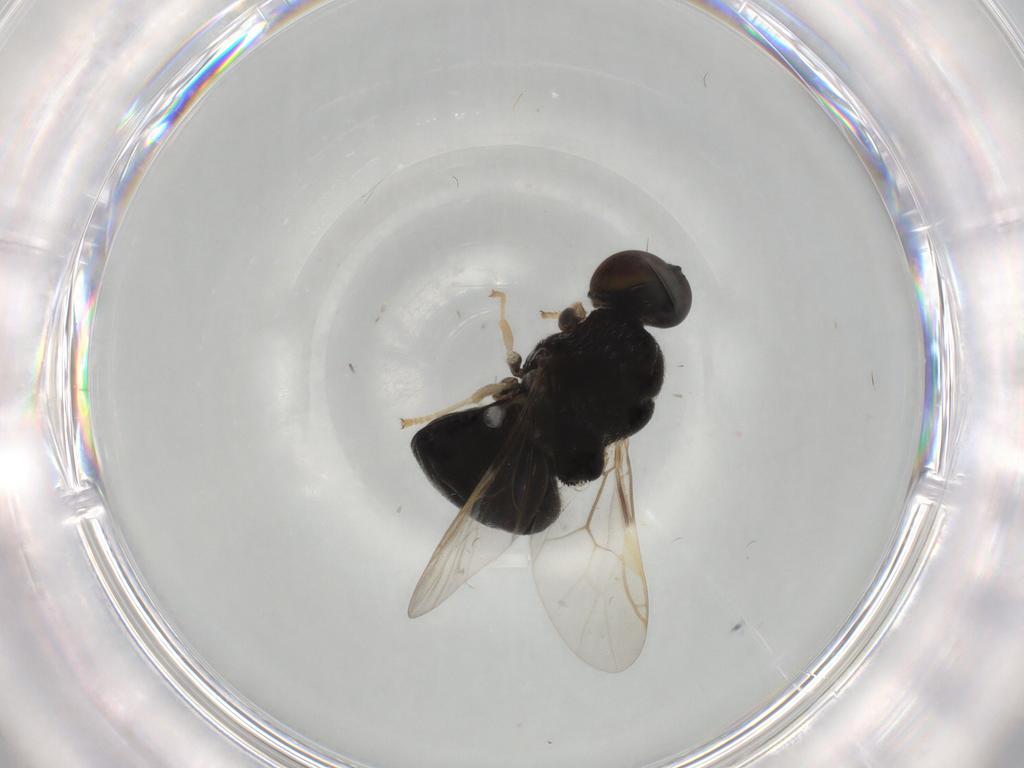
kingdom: Animalia
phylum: Arthropoda
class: Insecta
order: Diptera
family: Stratiomyidae
